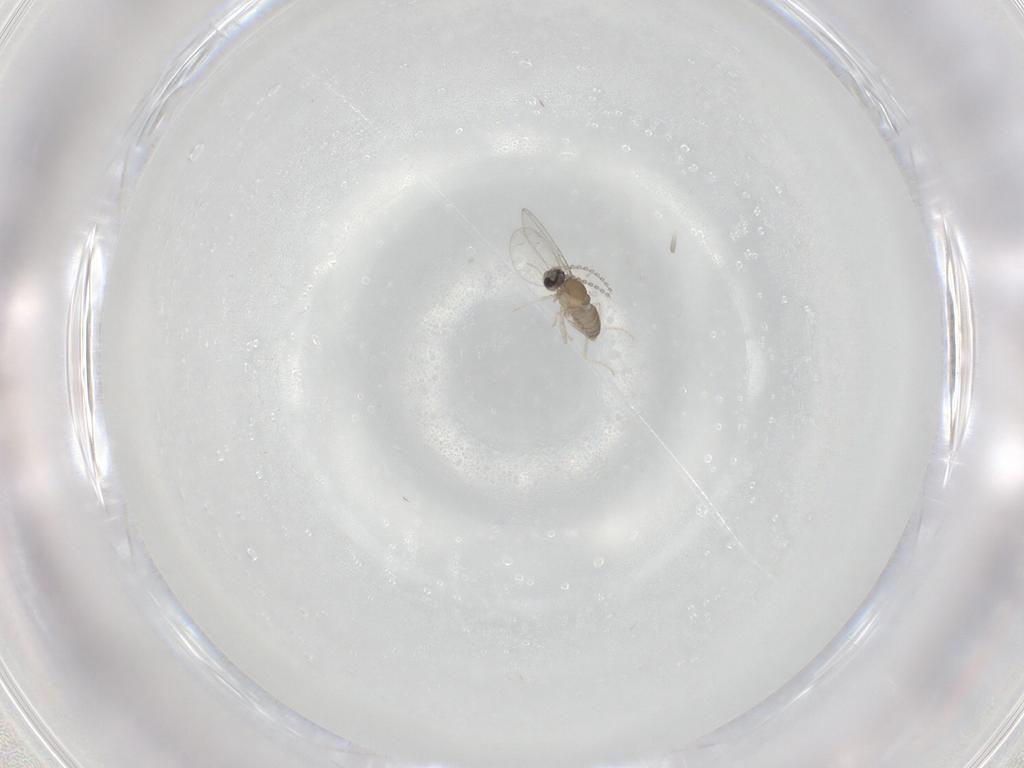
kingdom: Animalia
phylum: Arthropoda
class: Insecta
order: Diptera
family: Cecidomyiidae
